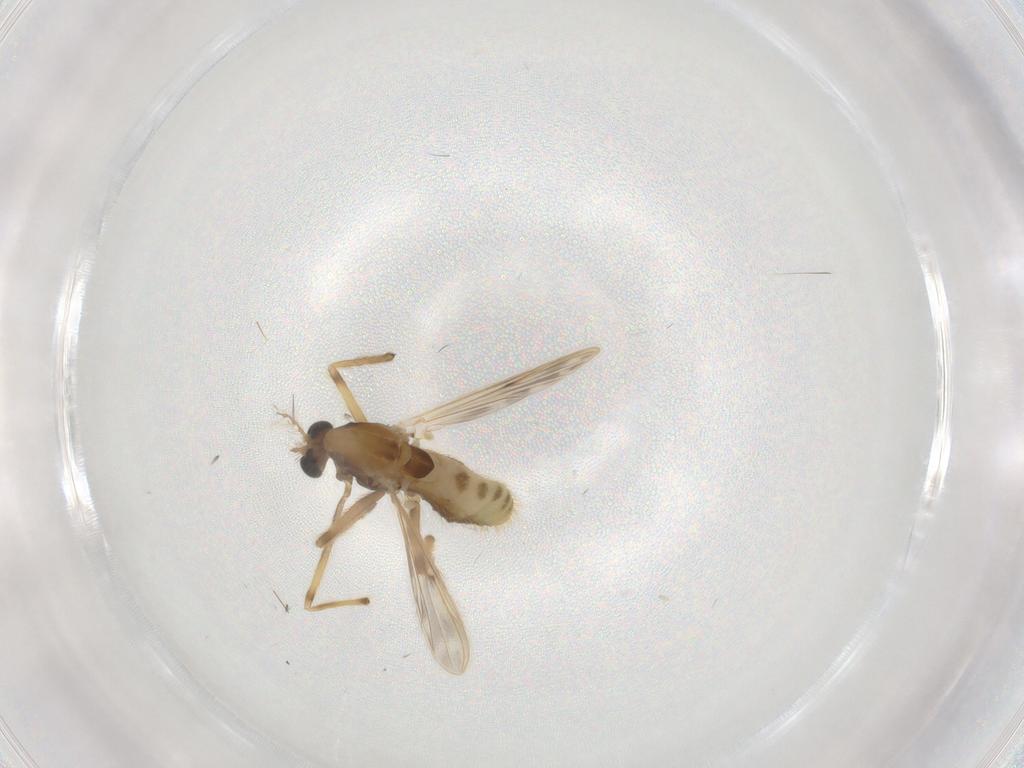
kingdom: Animalia
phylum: Arthropoda
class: Insecta
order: Diptera
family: Chironomidae
